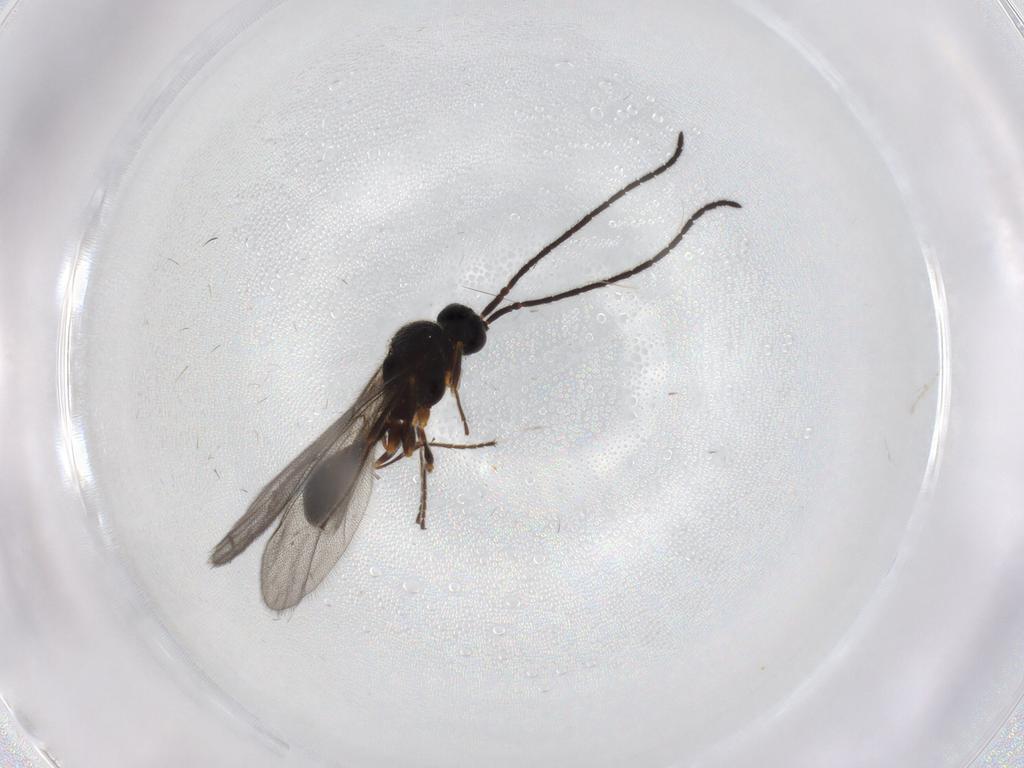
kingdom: Animalia
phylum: Arthropoda
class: Insecta
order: Hymenoptera
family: Diapriidae
